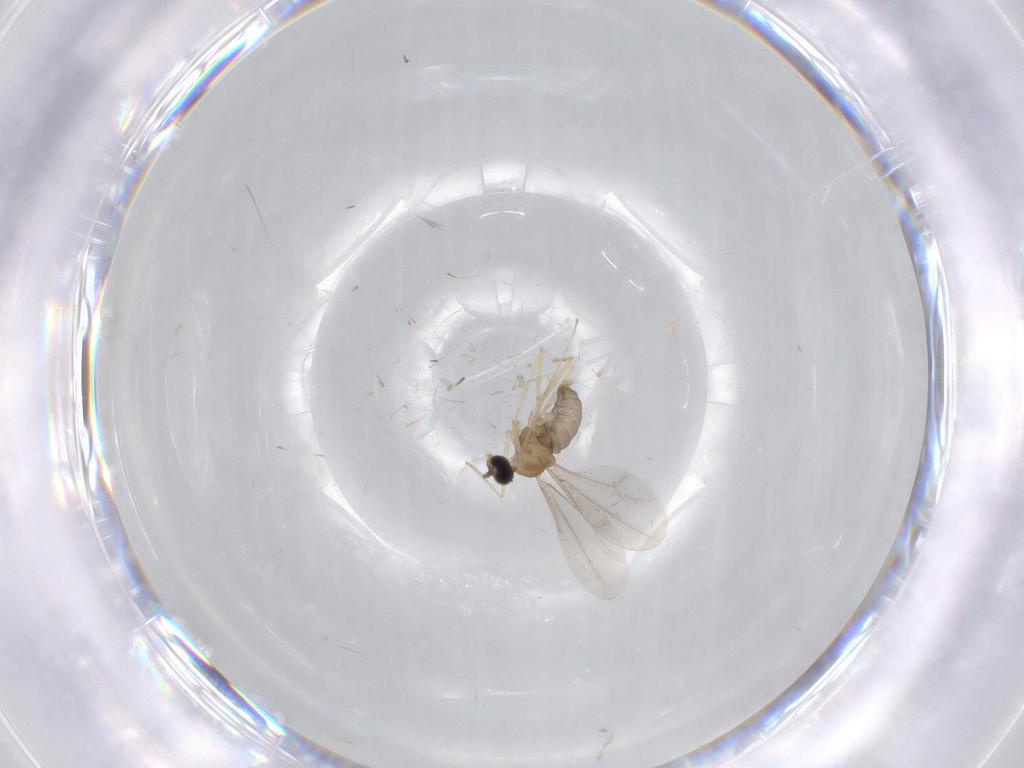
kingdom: Animalia
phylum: Arthropoda
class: Insecta
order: Diptera
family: Cecidomyiidae
